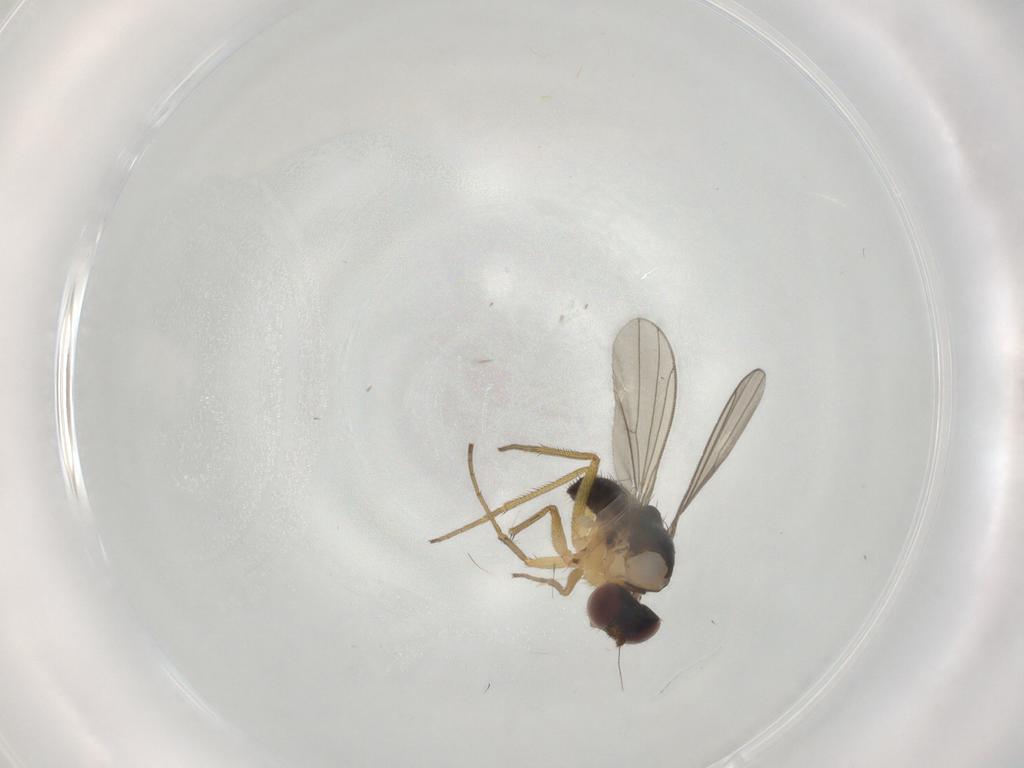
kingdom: Animalia
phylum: Arthropoda
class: Insecta
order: Diptera
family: Dolichopodidae
